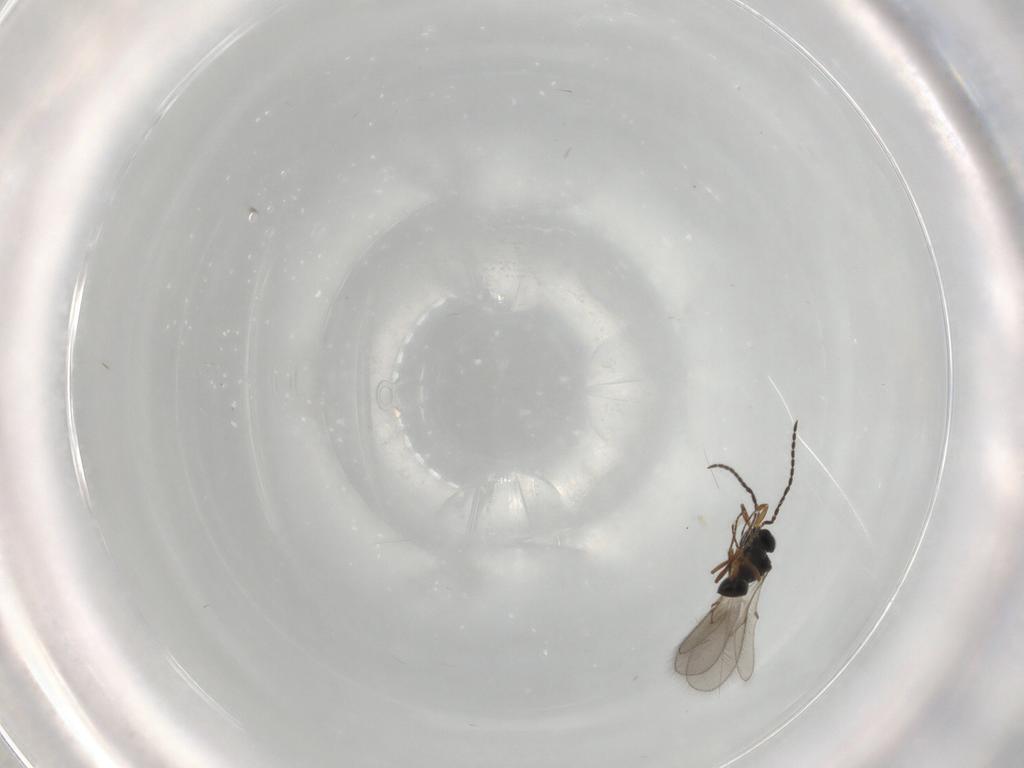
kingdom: Animalia
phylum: Arthropoda
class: Insecta
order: Hymenoptera
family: Scelionidae
